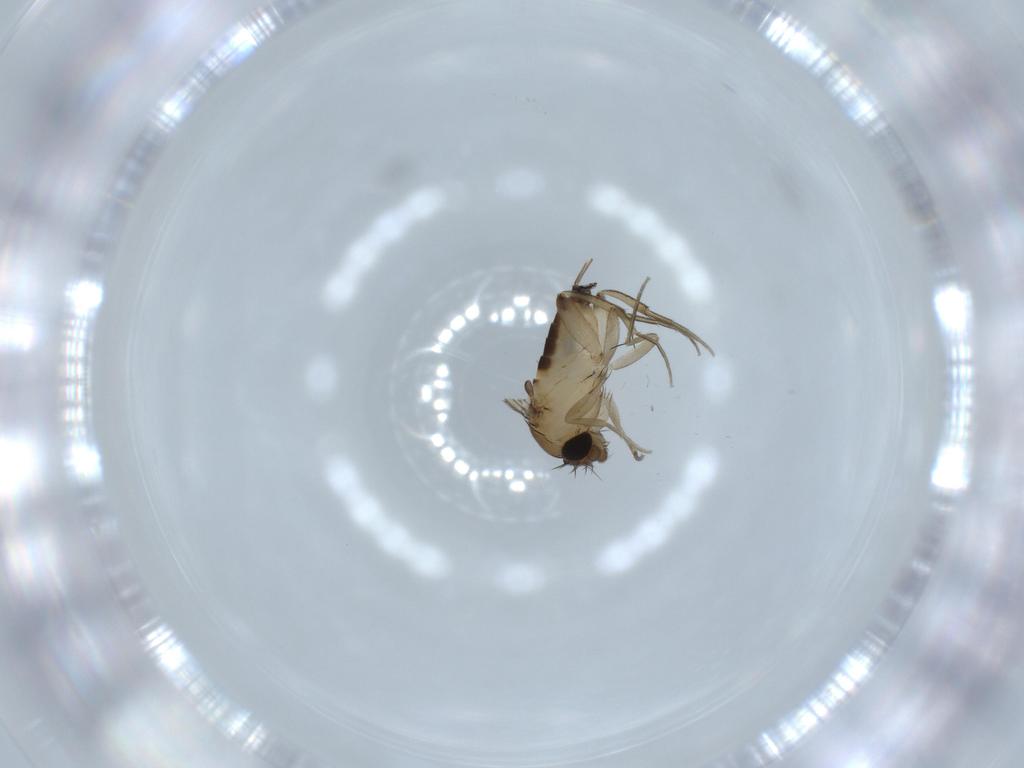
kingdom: Animalia
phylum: Arthropoda
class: Insecta
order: Diptera
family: Phoridae
